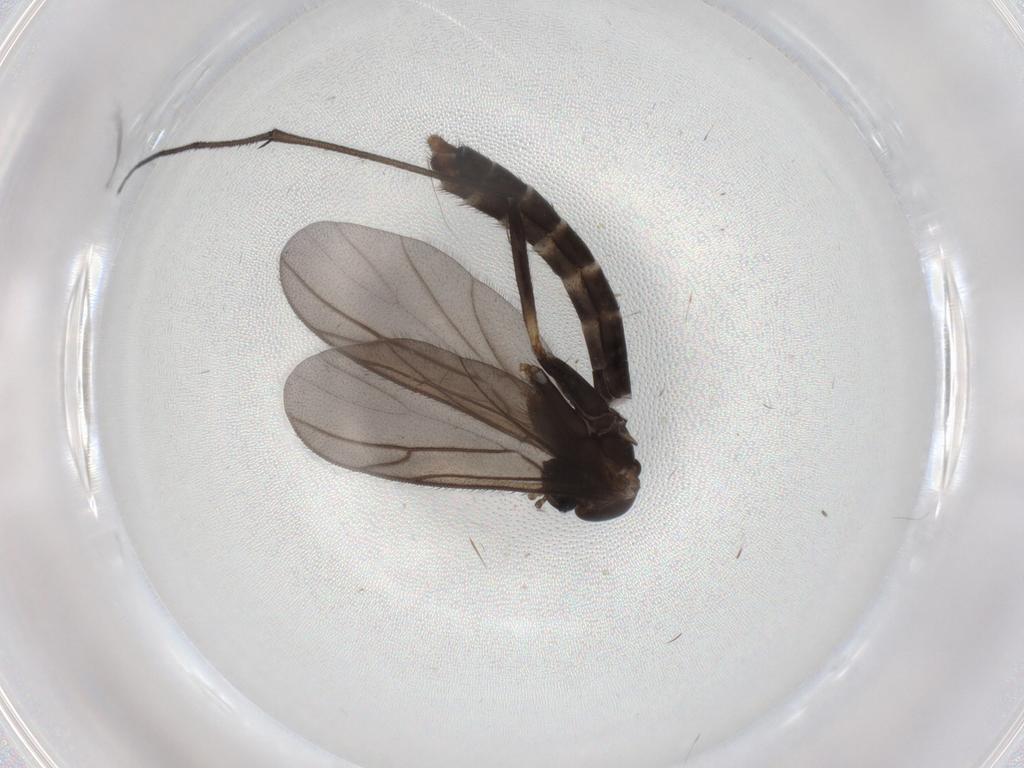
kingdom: Animalia
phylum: Arthropoda
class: Insecta
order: Diptera
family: Ditomyiidae
